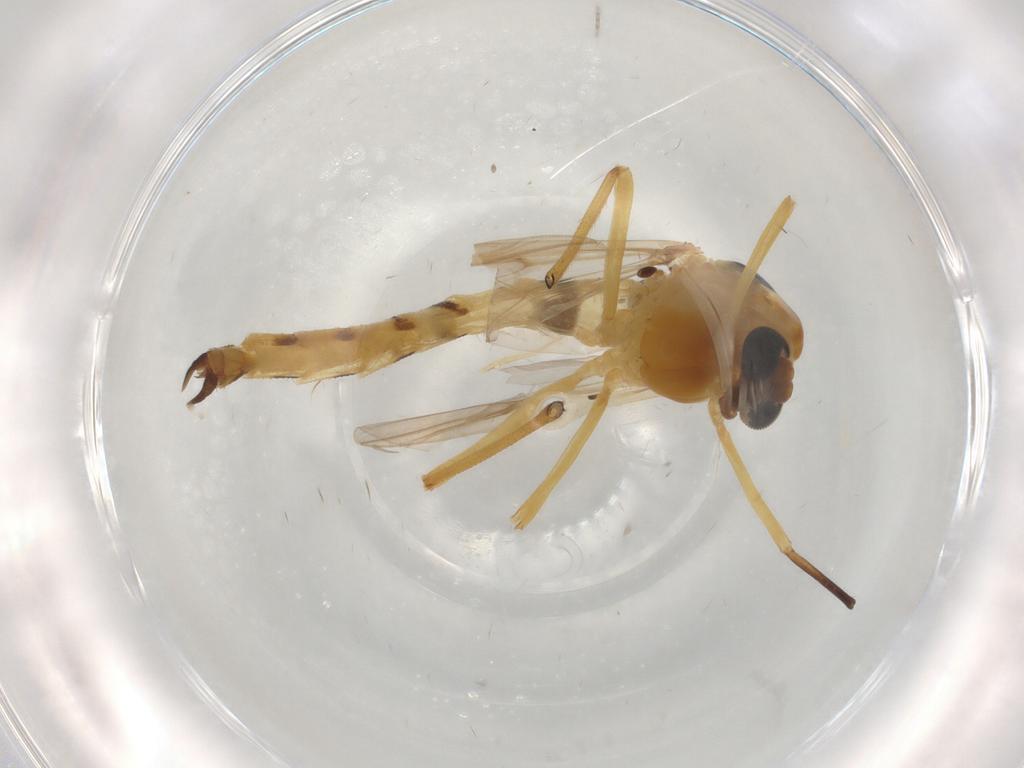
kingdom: Animalia
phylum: Arthropoda
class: Insecta
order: Diptera
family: Chironomidae
